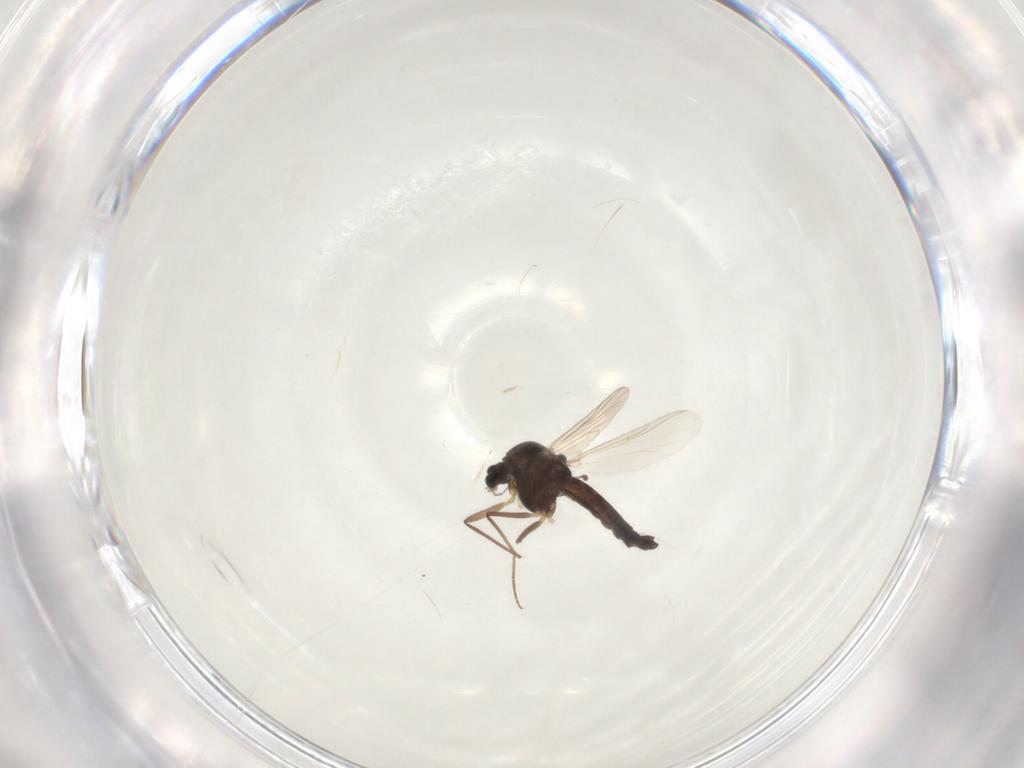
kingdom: Animalia
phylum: Arthropoda
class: Insecta
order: Diptera
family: Chironomidae
